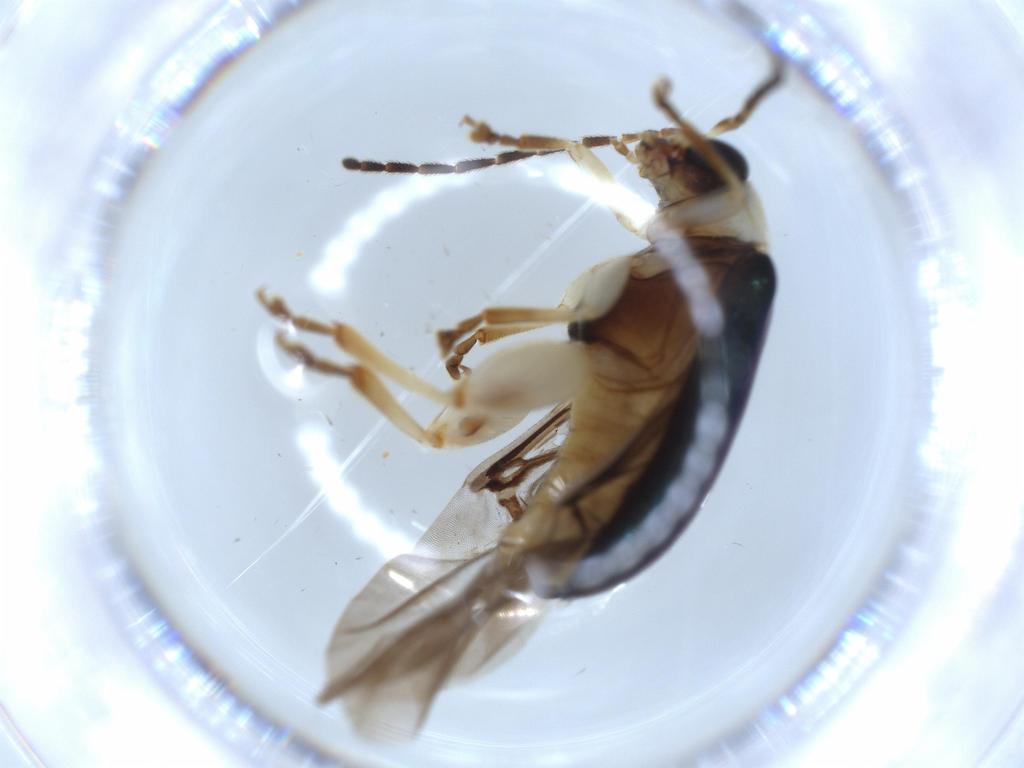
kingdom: Animalia
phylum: Arthropoda
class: Insecta
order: Coleoptera
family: Chrysomelidae
